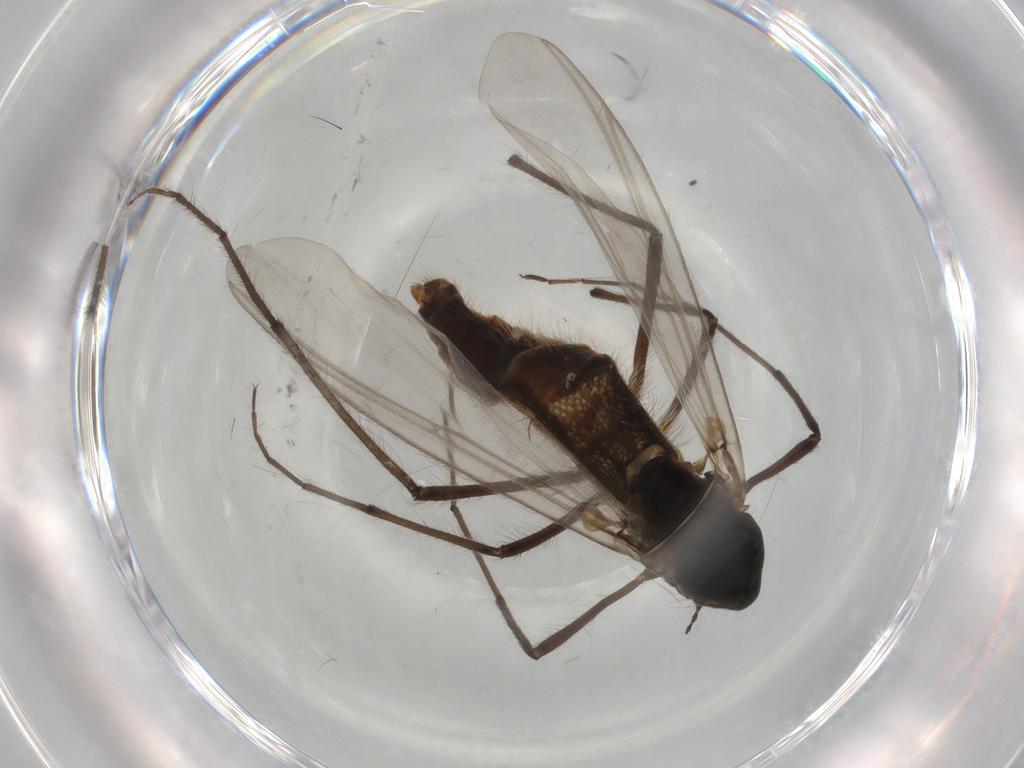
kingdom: Animalia
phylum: Arthropoda
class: Insecta
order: Diptera
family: Chironomidae
